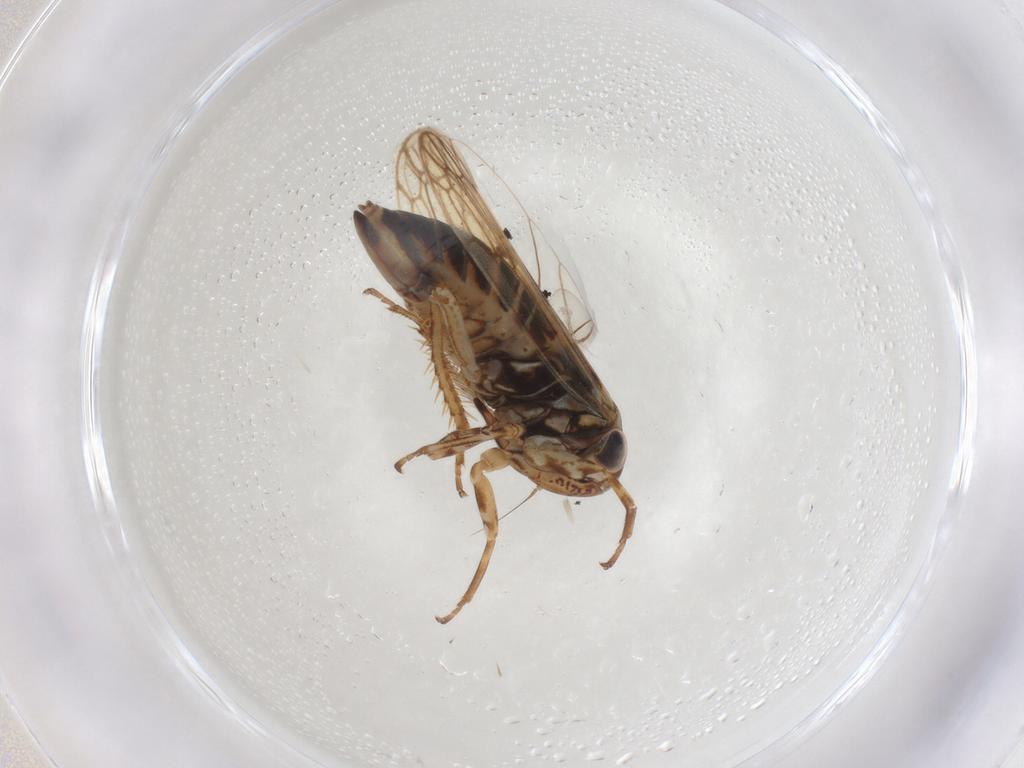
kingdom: Animalia
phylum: Arthropoda
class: Insecta
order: Hemiptera
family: Cicadellidae
